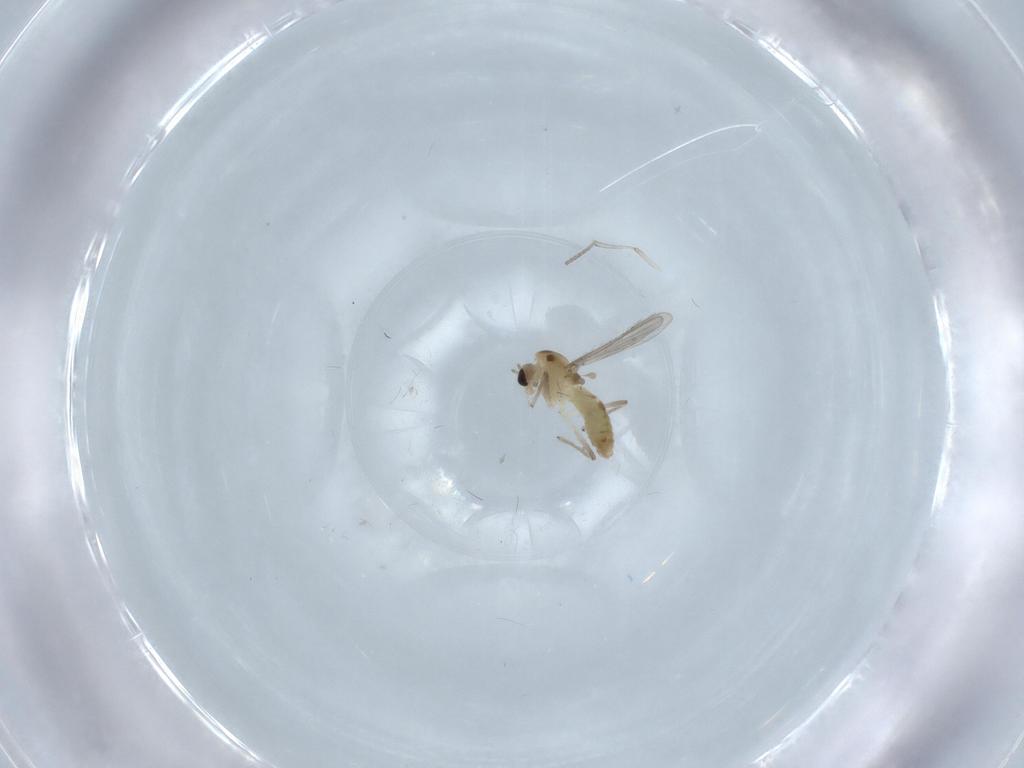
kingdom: Animalia
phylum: Arthropoda
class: Insecta
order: Diptera
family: Chironomidae
